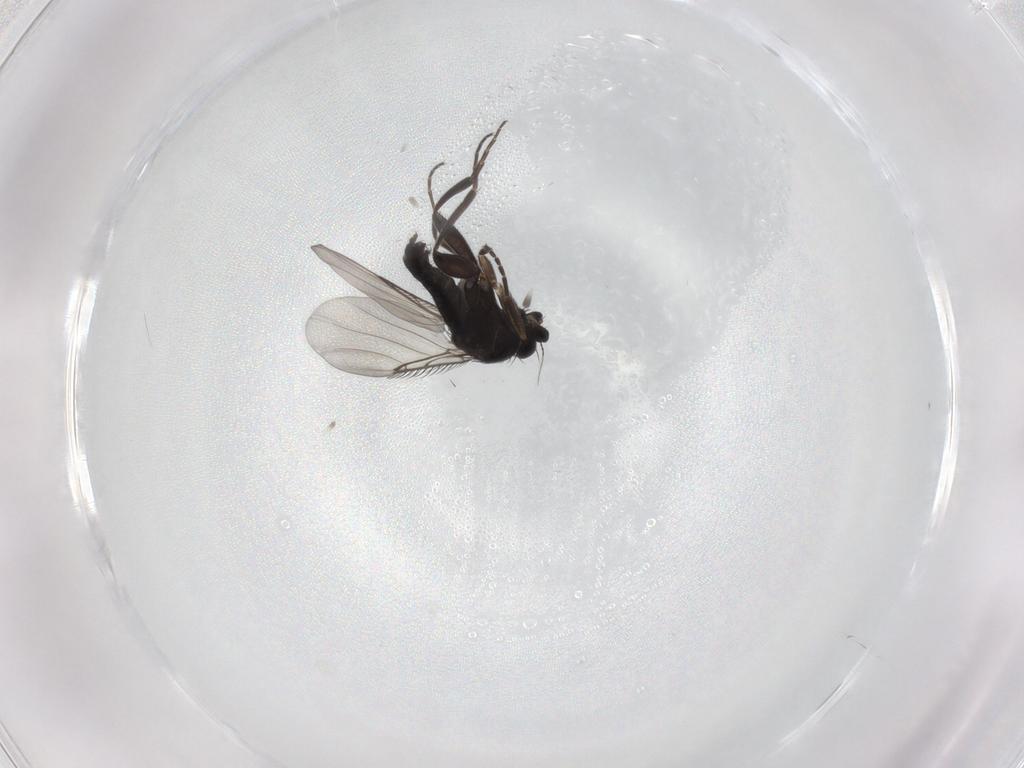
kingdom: Animalia
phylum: Arthropoda
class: Insecta
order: Diptera
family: Phoridae
